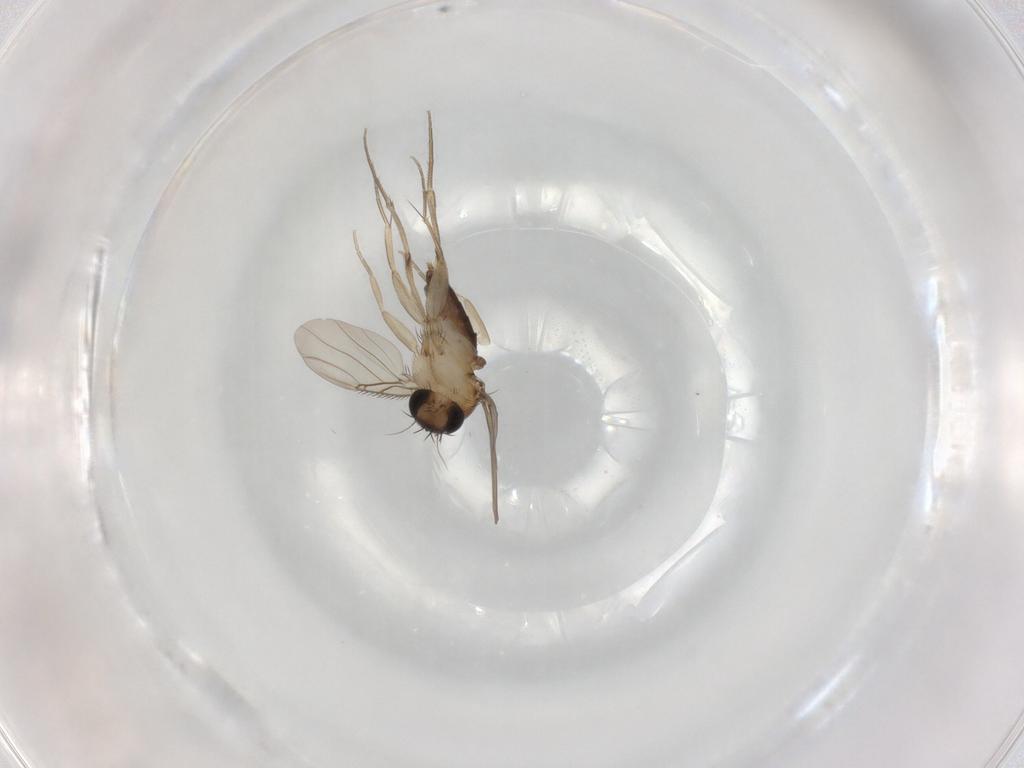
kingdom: Animalia
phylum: Arthropoda
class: Insecta
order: Diptera
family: Phoridae
